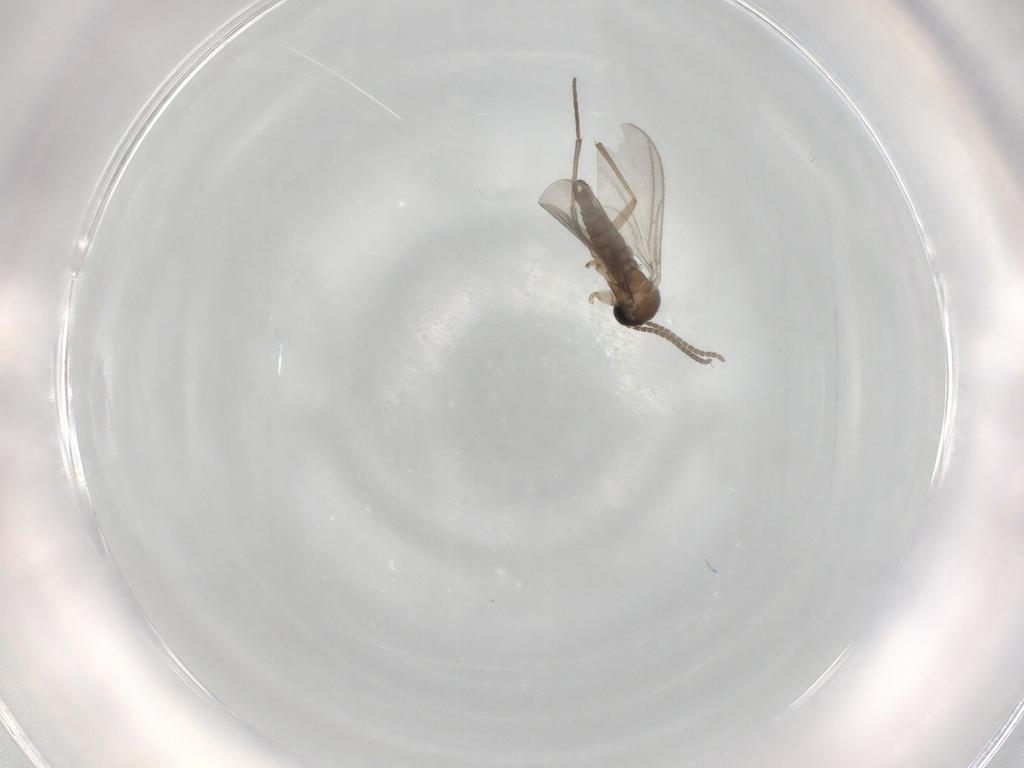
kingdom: Animalia
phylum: Arthropoda
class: Insecta
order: Diptera
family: Sciaridae
